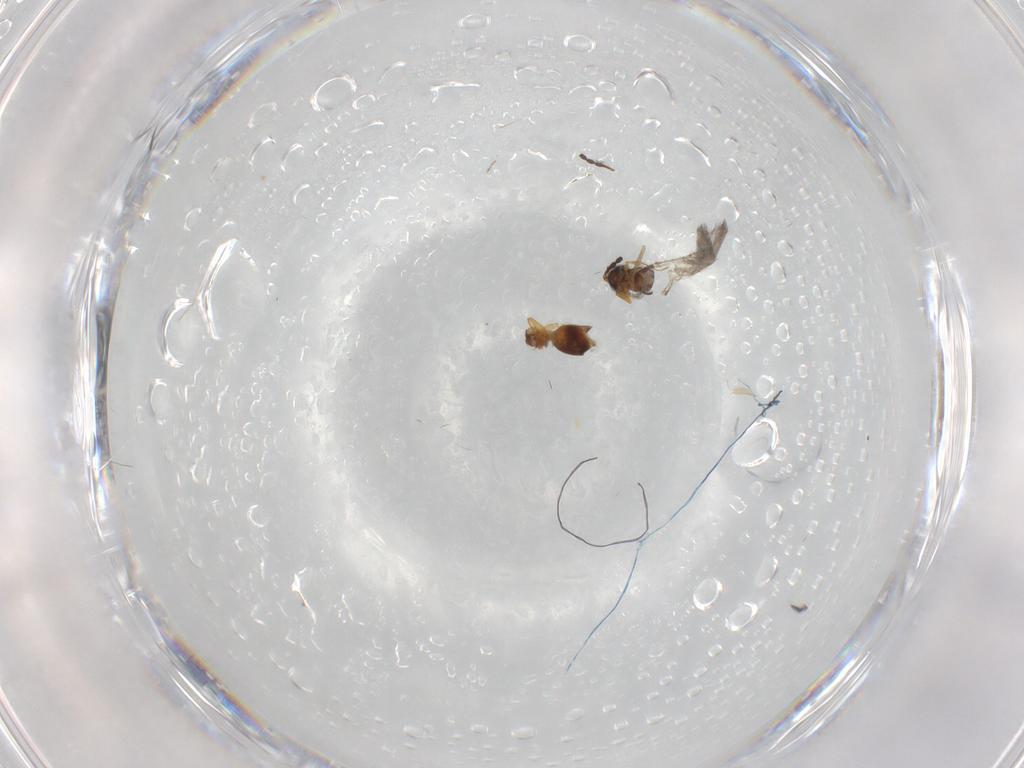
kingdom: Animalia
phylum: Arthropoda
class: Insecta
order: Hymenoptera
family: Figitidae
